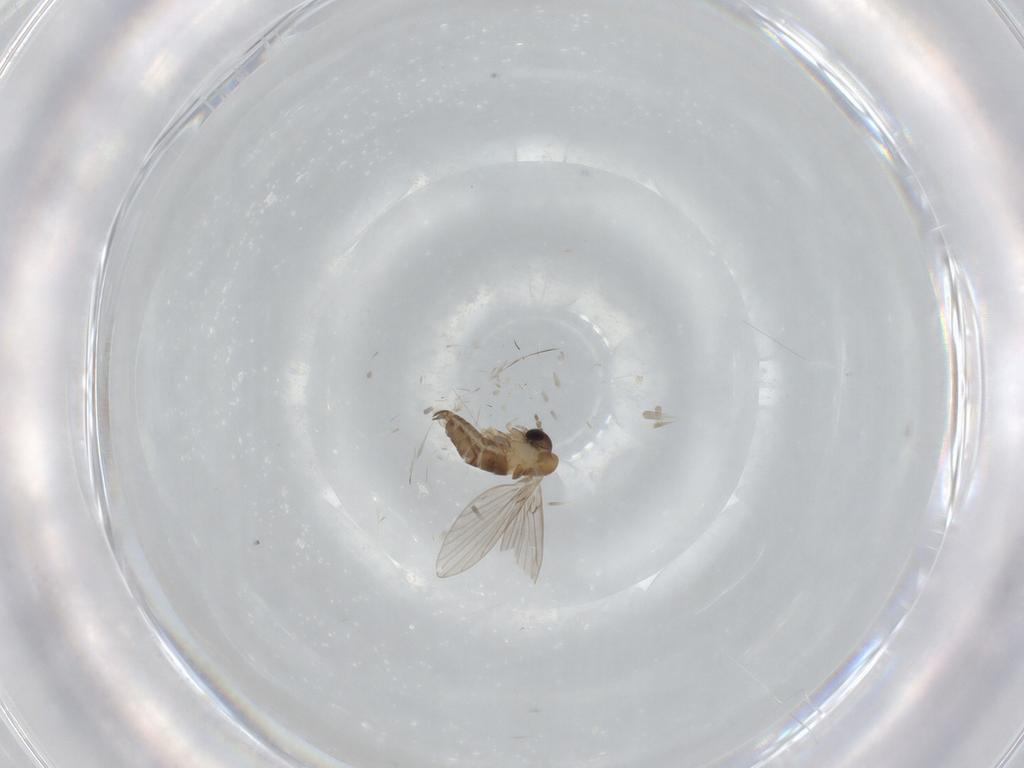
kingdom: Animalia
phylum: Arthropoda
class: Insecta
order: Diptera
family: Psychodidae
